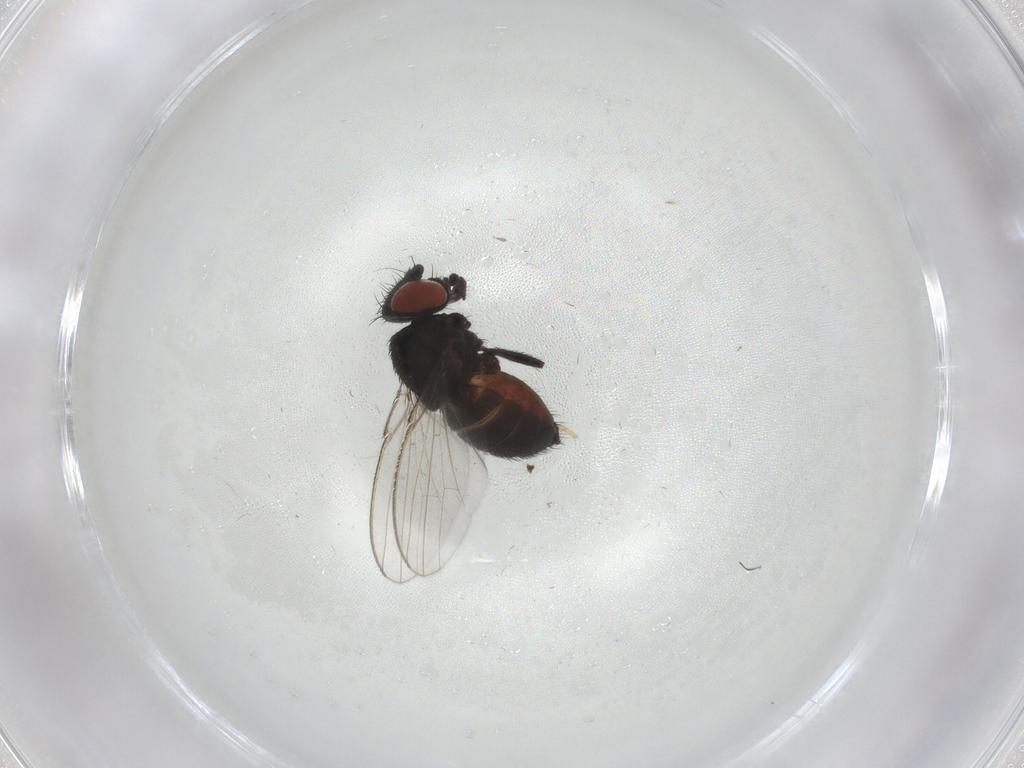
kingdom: Animalia
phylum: Arthropoda
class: Insecta
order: Diptera
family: Milichiidae
